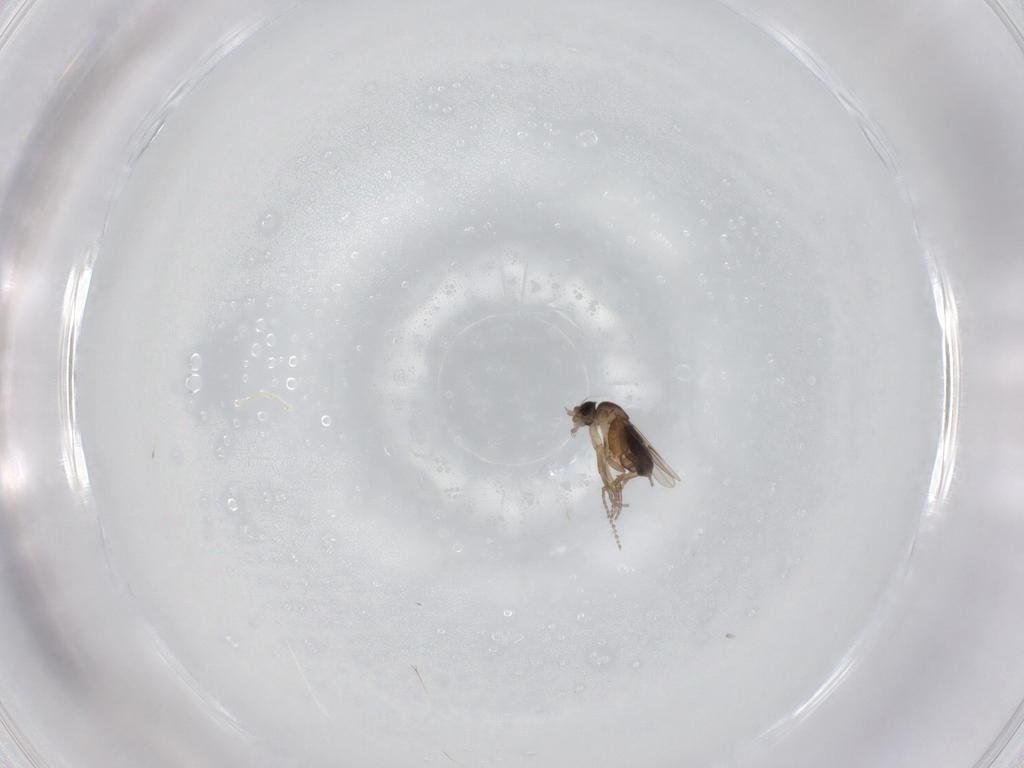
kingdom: Animalia
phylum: Arthropoda
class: Insecta
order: Diptera
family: Phoridae
